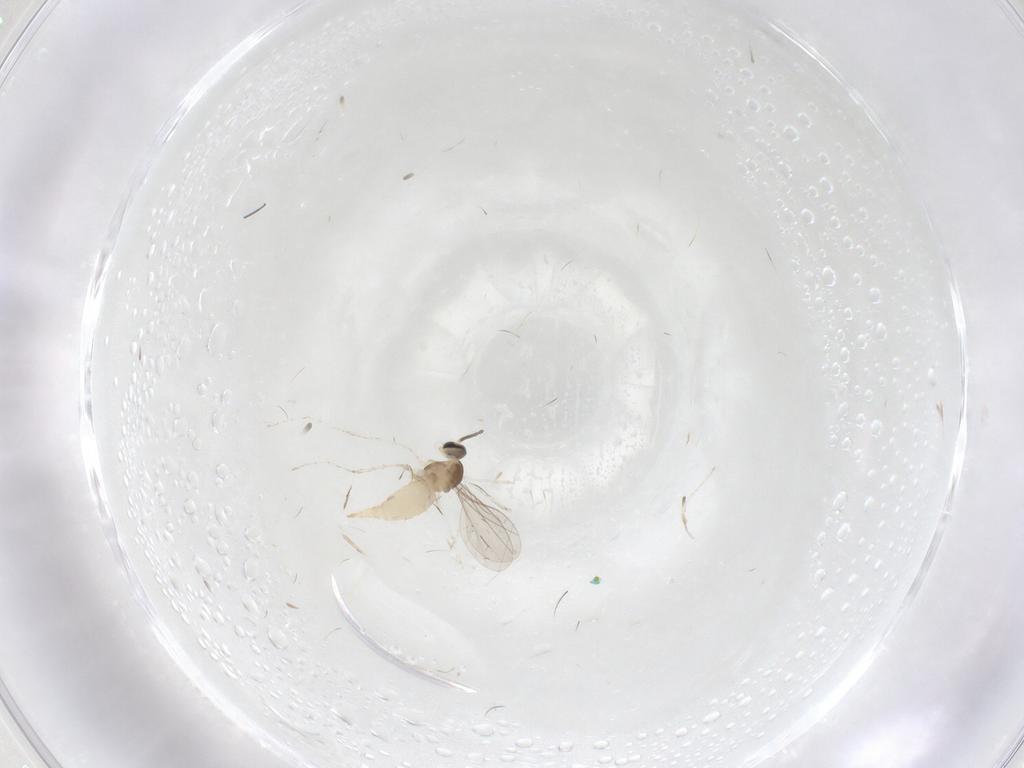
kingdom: Animalia
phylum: Arthropoda
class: Insecta
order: Diptera
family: Cecidomyiidae
